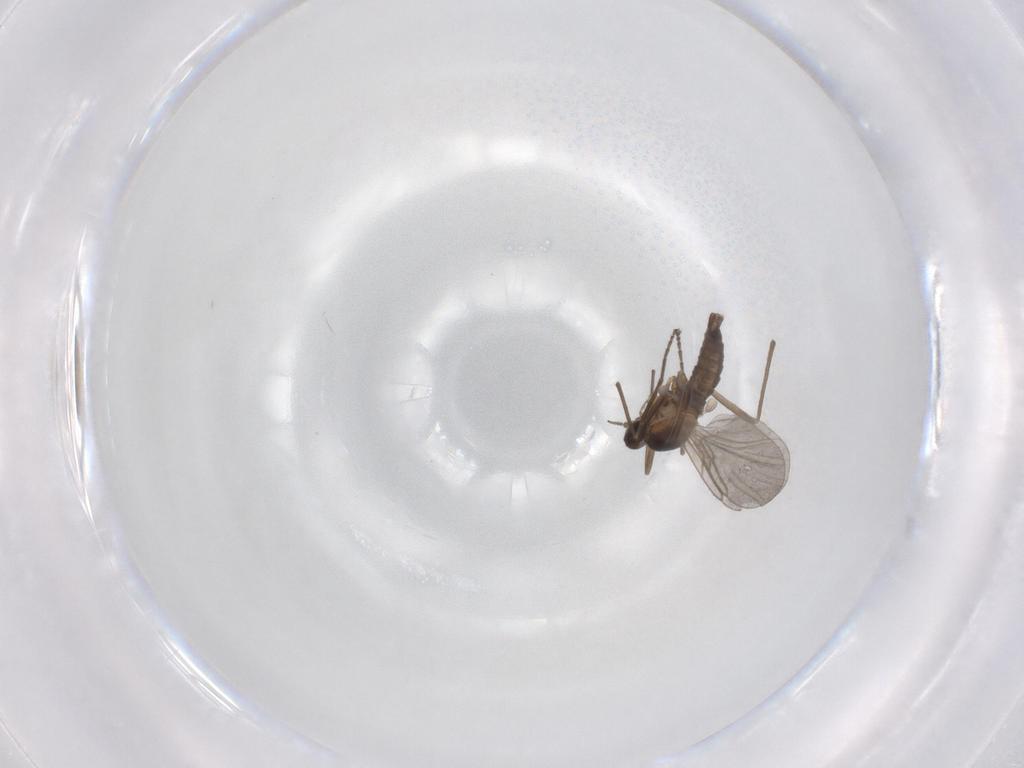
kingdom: Animalia
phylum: Arthropoda
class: Insecta
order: Diptera
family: Cecidomyiidae
